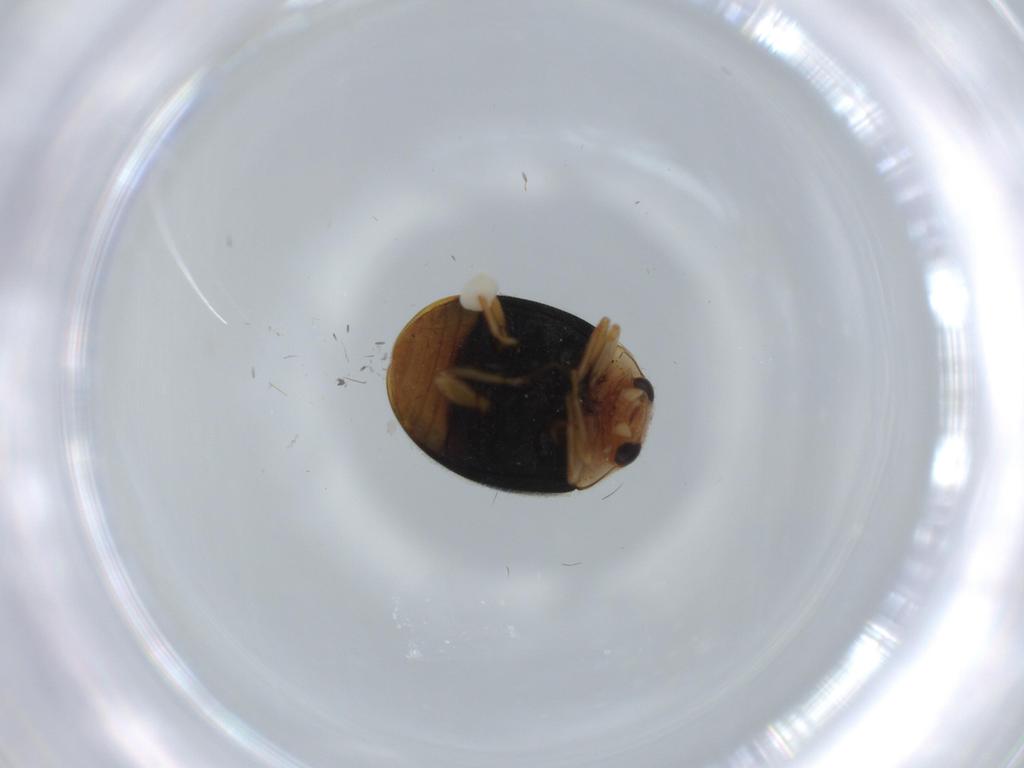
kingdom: Animalia
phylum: Arthropoda
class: Insecta
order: Coleoptera
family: Coccinellidae
